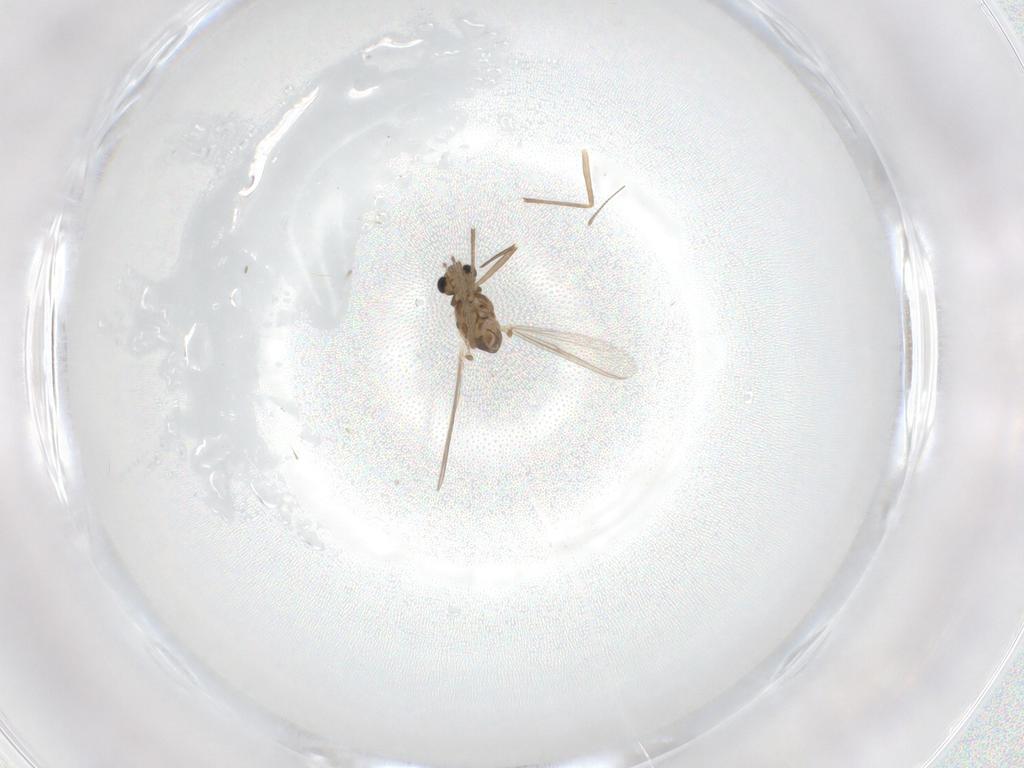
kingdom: Animalia
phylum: Arthropoda
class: Insecta
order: Diptera
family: Chironomidae
